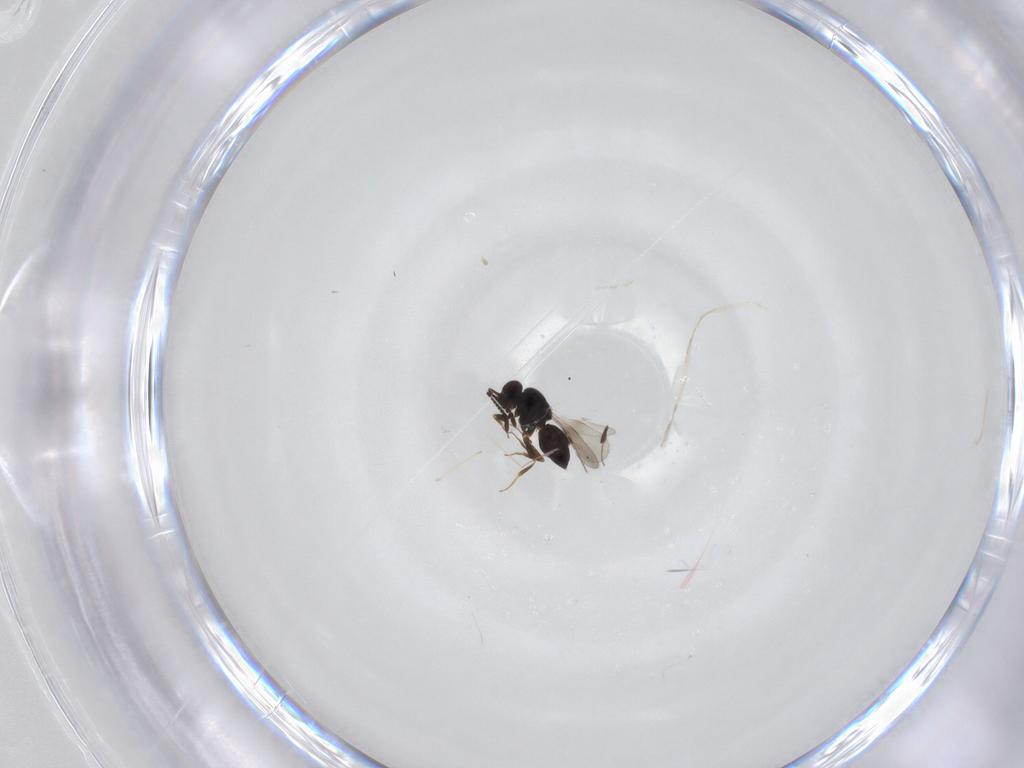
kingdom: Animalia
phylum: Arthropoda
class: Insecta
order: Hymenoptera
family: Ceraphronidae
